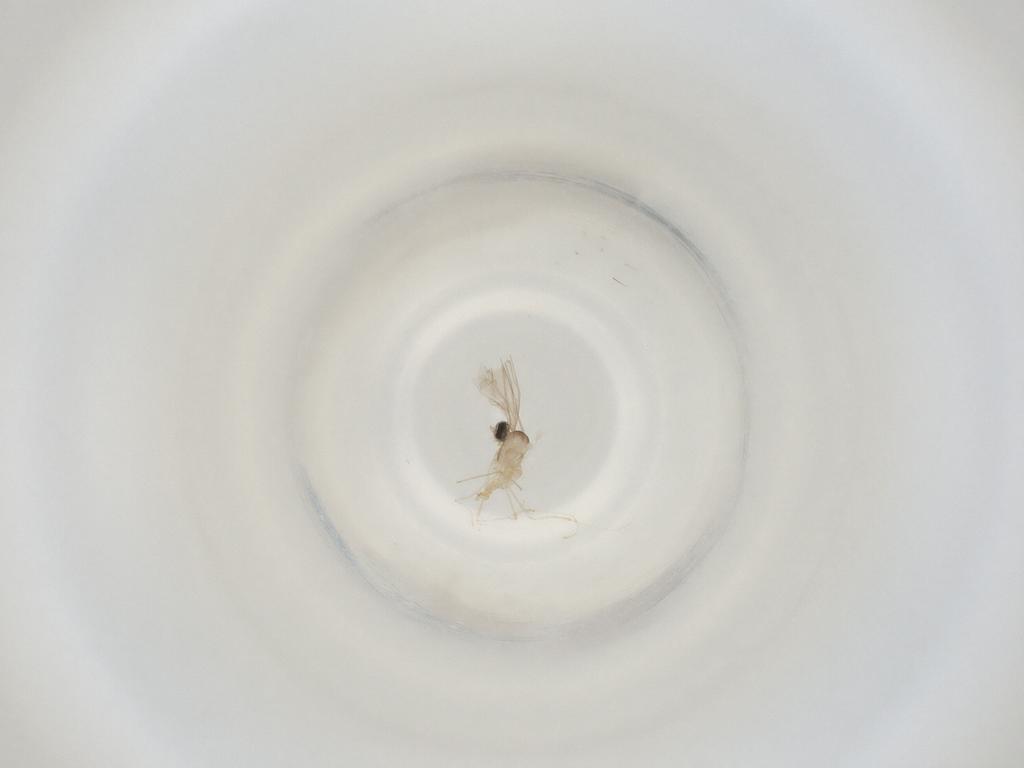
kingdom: Animalia
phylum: Arthropoda
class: Insecta
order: Diptera
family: Cecidomyiidae
